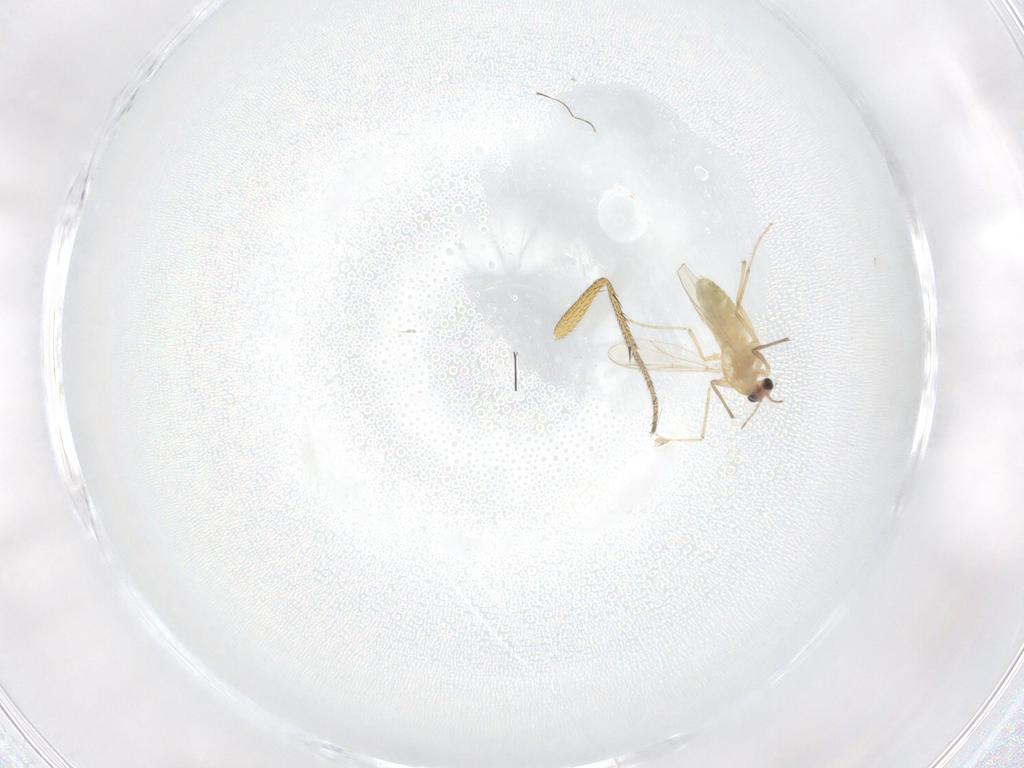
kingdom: Animalia
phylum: Arthropoda
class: Insecta
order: Diptera
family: Chironomidae
